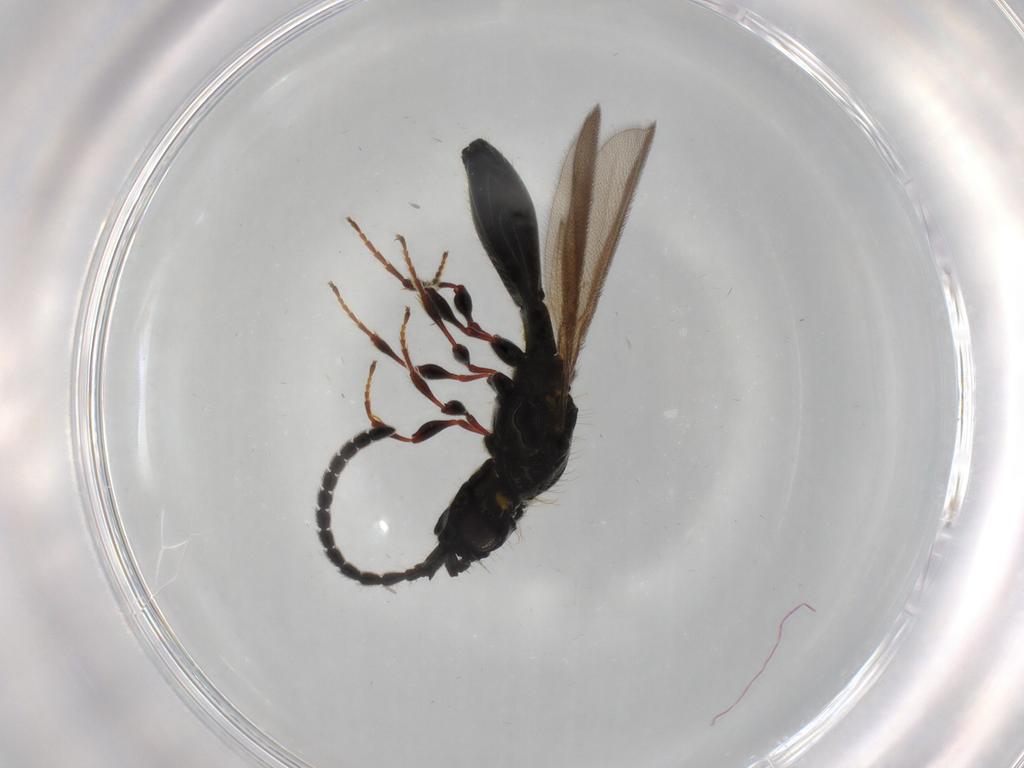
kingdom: Animalia
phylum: Arthropoda
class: Insecta
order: Hymenoptera
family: Diapriidae
